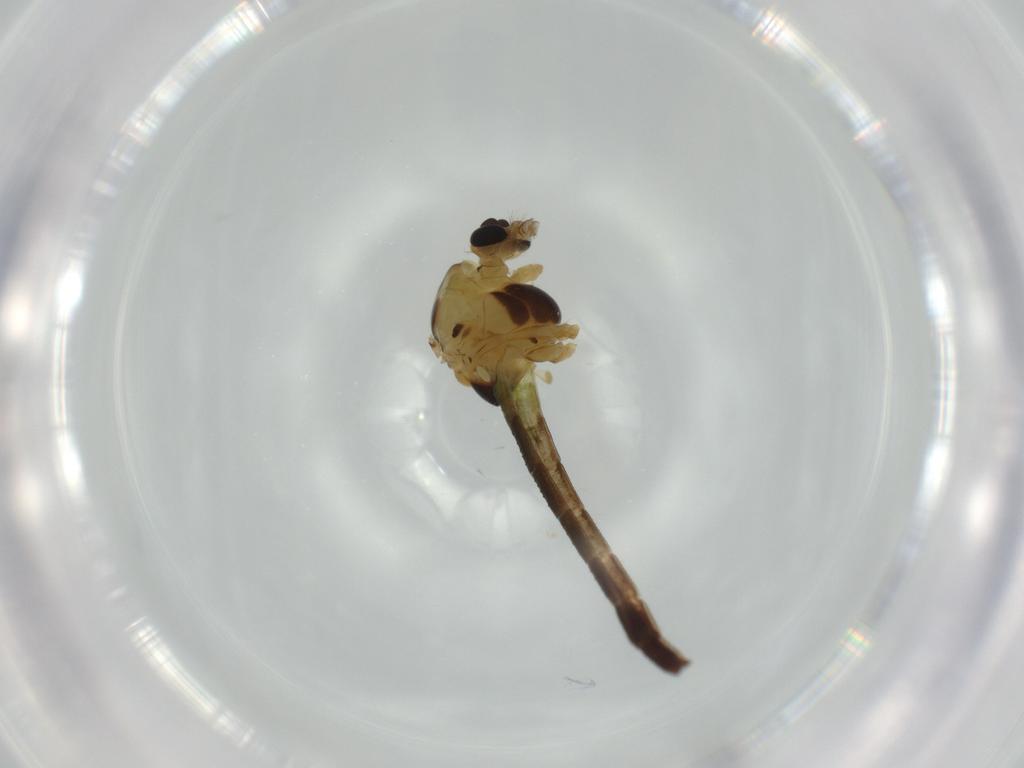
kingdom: Animalia
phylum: Arthropoda
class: Insecta
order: Diptera
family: Chironomidae
